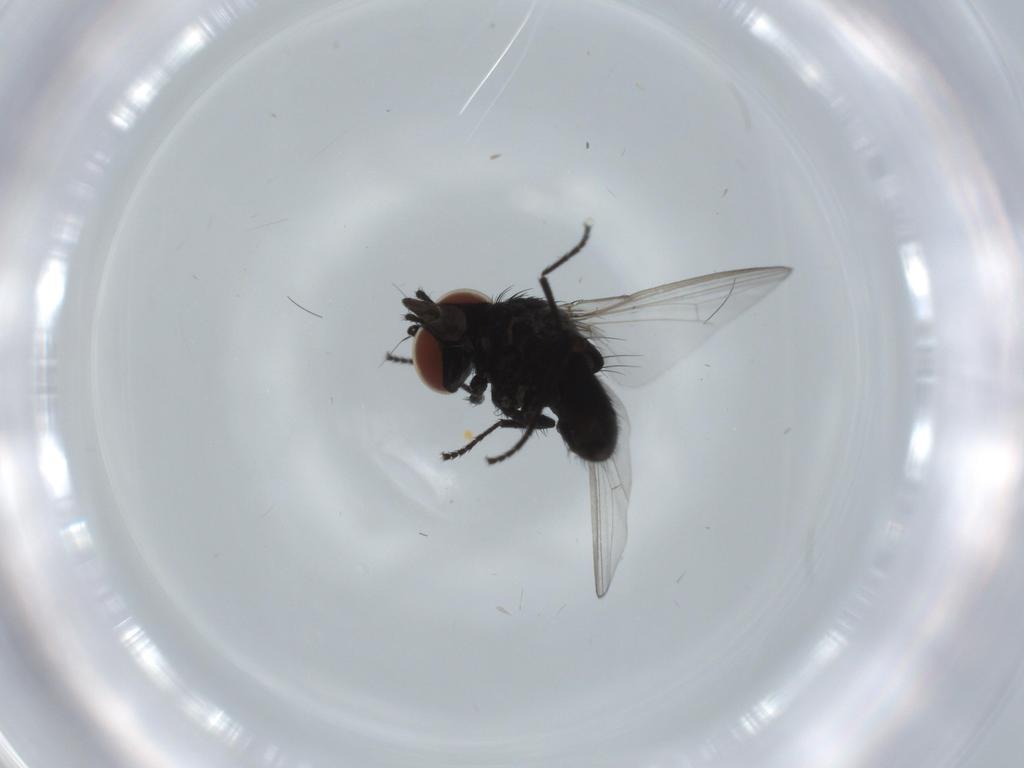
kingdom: Animalia
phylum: Arthropoda
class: Insecta
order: Diptera
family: Milichiidae
